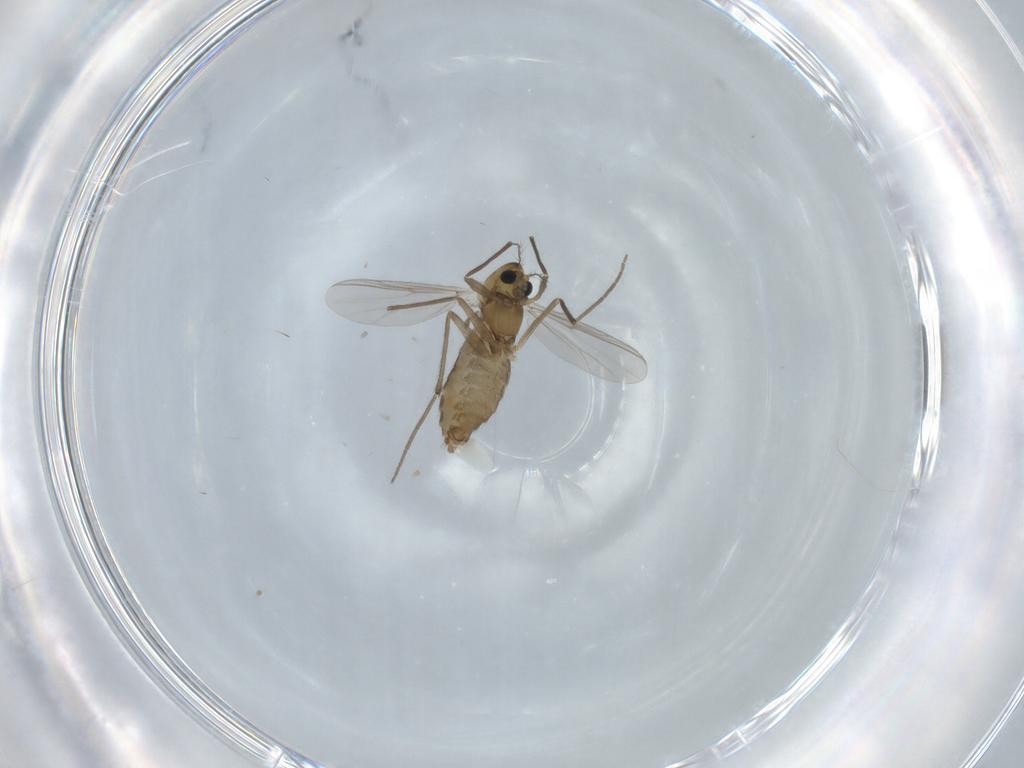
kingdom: Animalia
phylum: Arthropoda
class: Insecta
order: Diptera
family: Chironomidae
